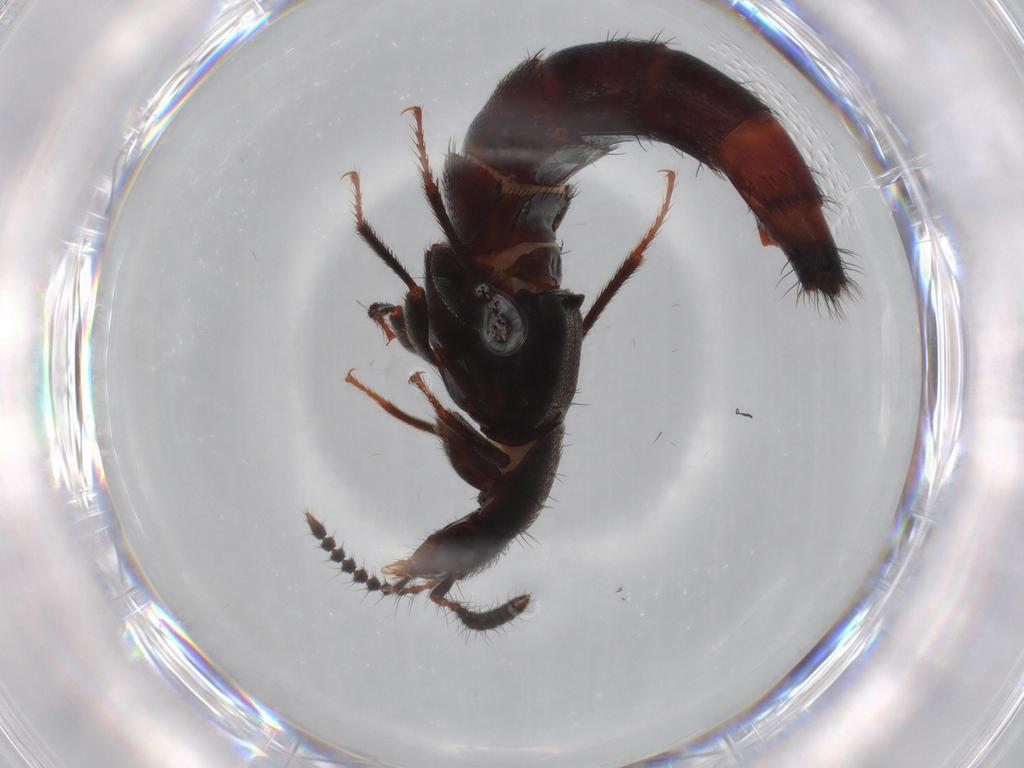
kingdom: Animalia
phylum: Arthropoda
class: Insecta
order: Coleoptera
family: Staphylinidae
